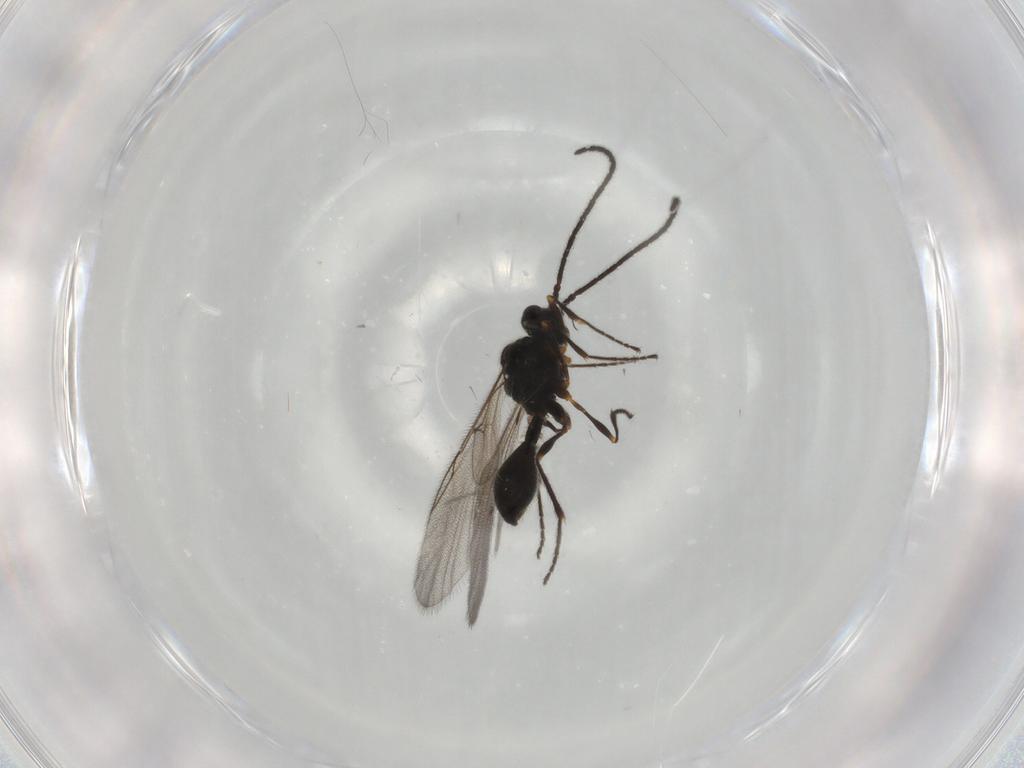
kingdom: Animalia
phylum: Arthropoda
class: Insecta
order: Hymenoptera
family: Diapriidae
